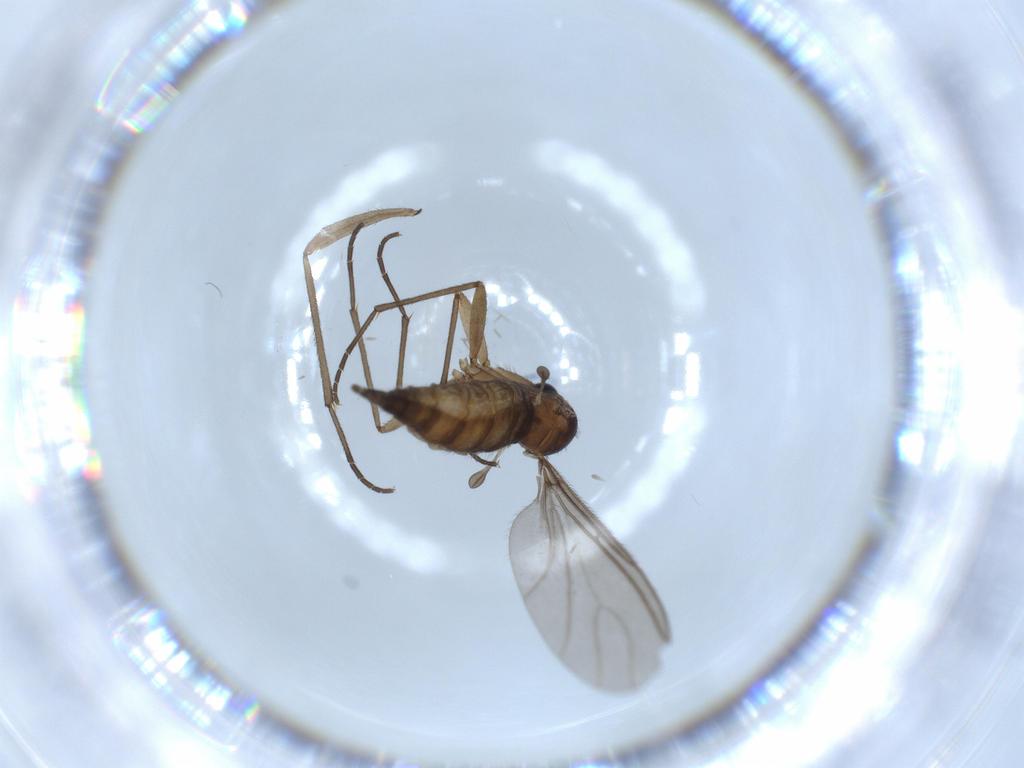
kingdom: Animalia
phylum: Arthropoda
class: Insecta
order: Diptera
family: Sciaridae
